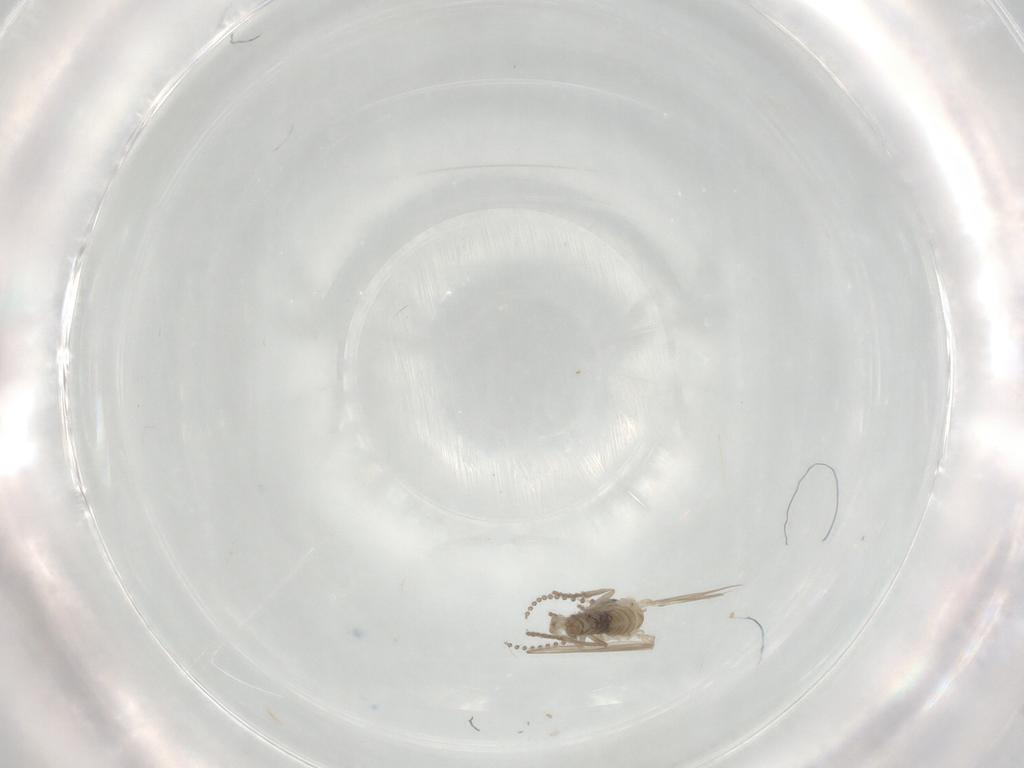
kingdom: Animalia
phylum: Arthropoda
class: Insecta
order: Diptera
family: Psychodidae
